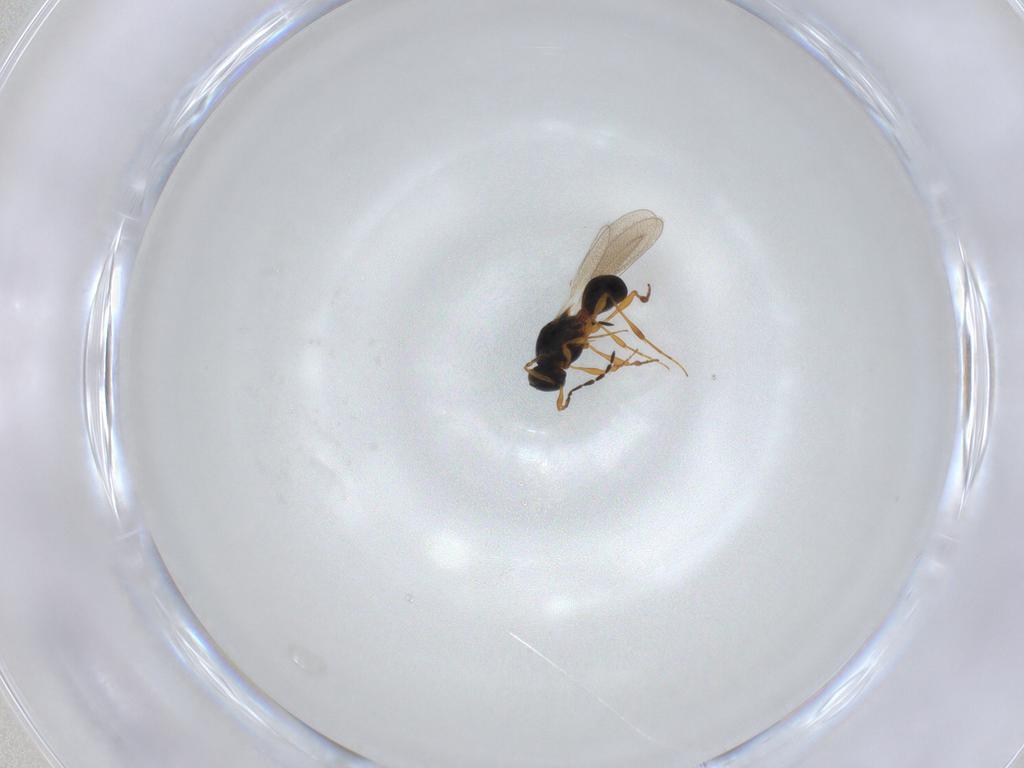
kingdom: Animalia
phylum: Arthropoda
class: Insecta
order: Hymenoptera
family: Platygastridae
